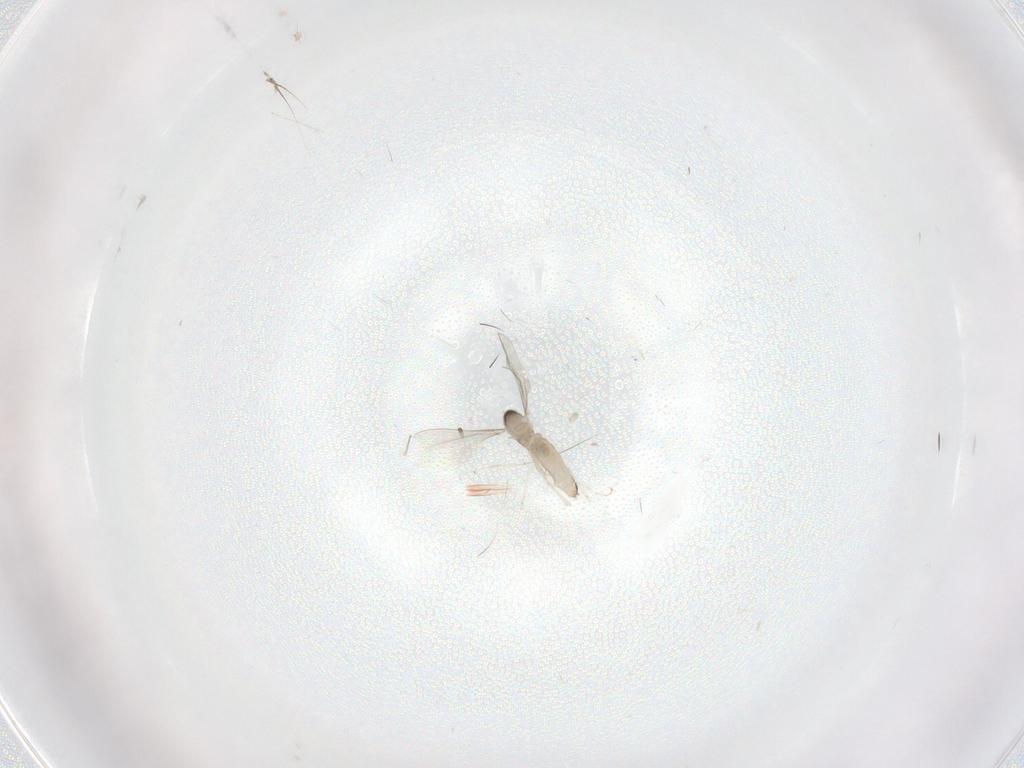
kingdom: Animalia
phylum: Arthropoda
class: Insecta
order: Diptera
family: Cecidomyiidae
